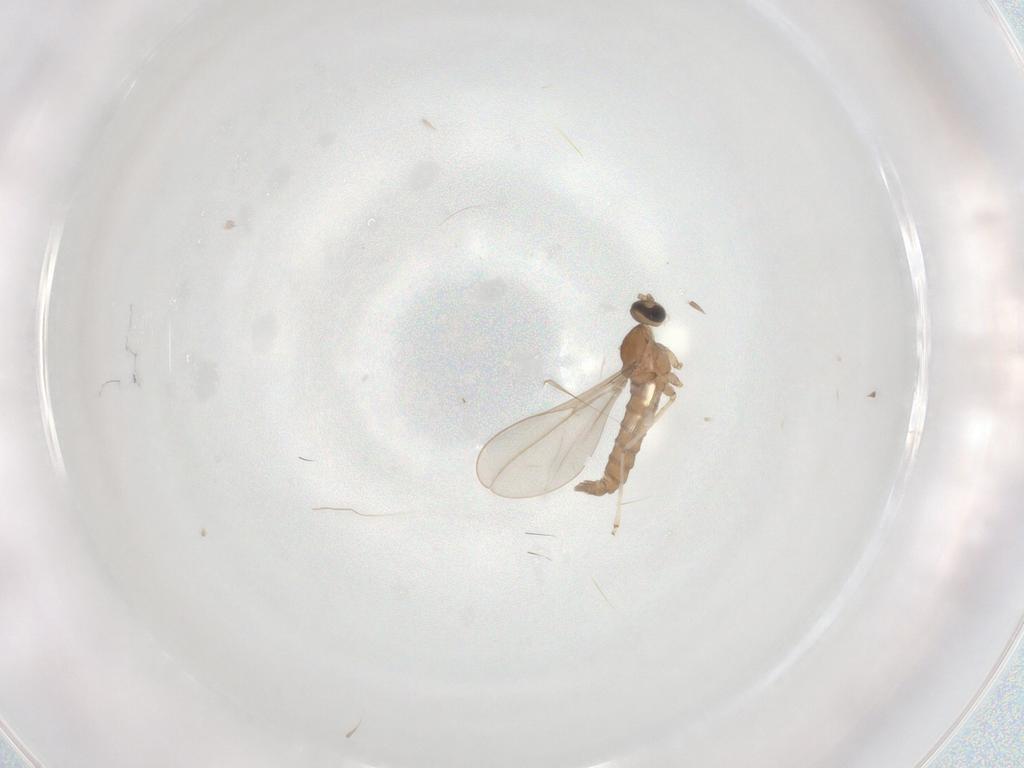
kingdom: Animalia
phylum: Arthropoda
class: Insecta
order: Diptera
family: Cecidomyiidae
